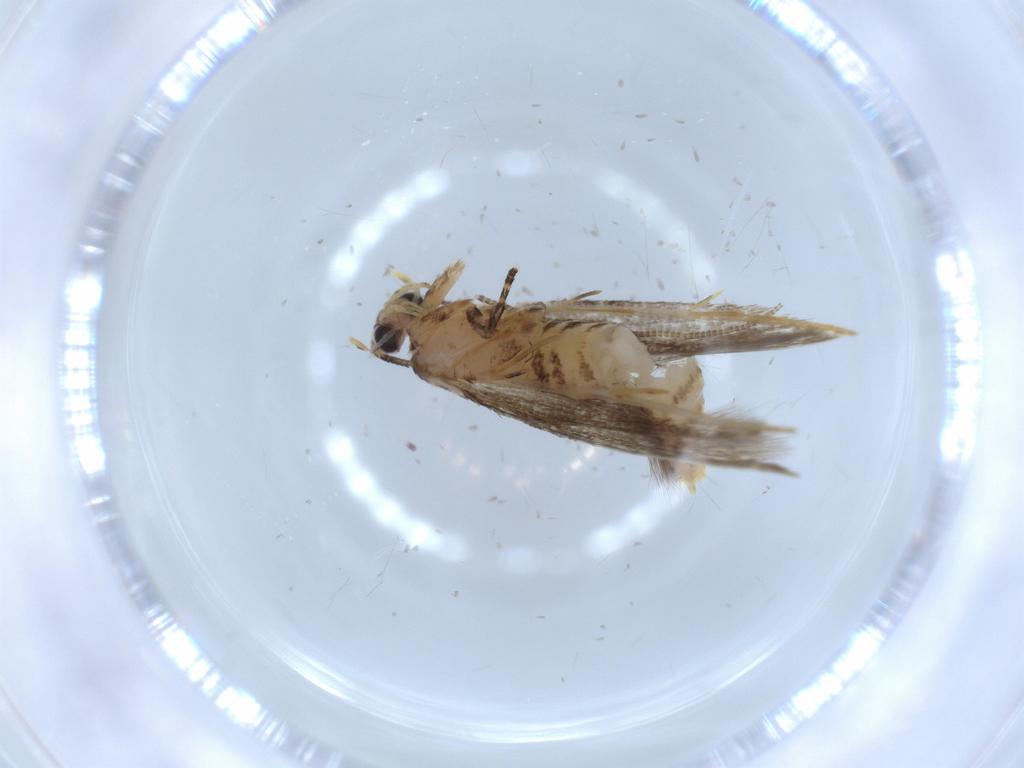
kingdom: Animalia
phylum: Arthropoda
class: Insecta
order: Lepidoptera
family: Tineidae
